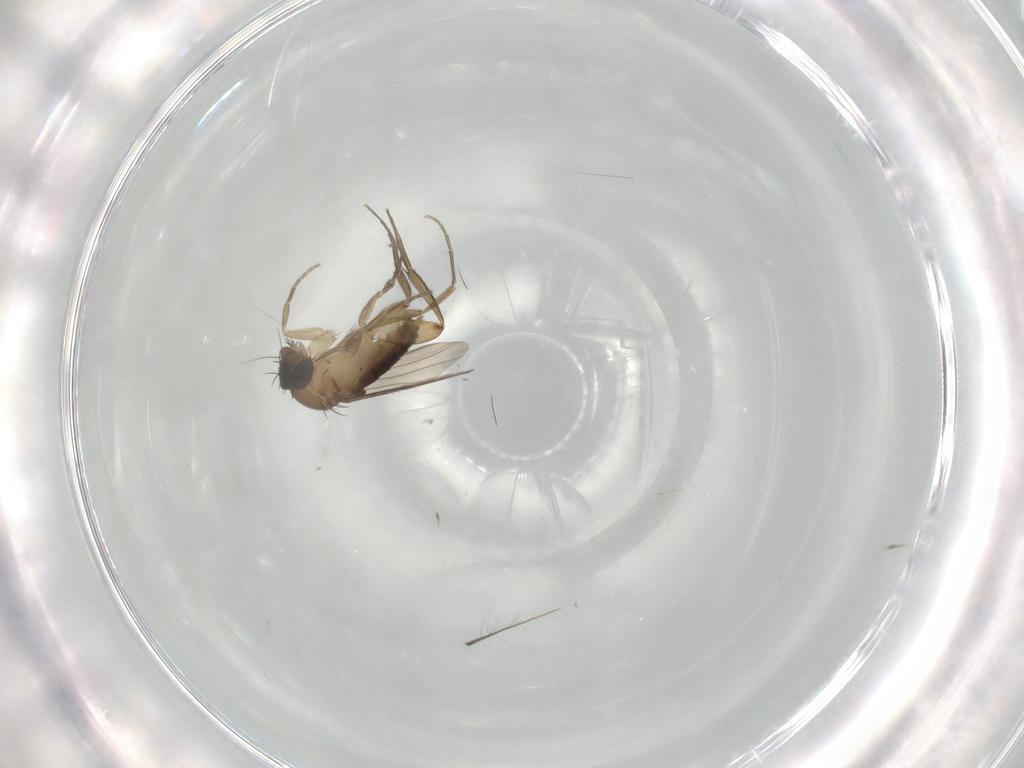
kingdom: Animalia
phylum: Arthropoda
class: Insecta
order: Diptera
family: Phoridae
